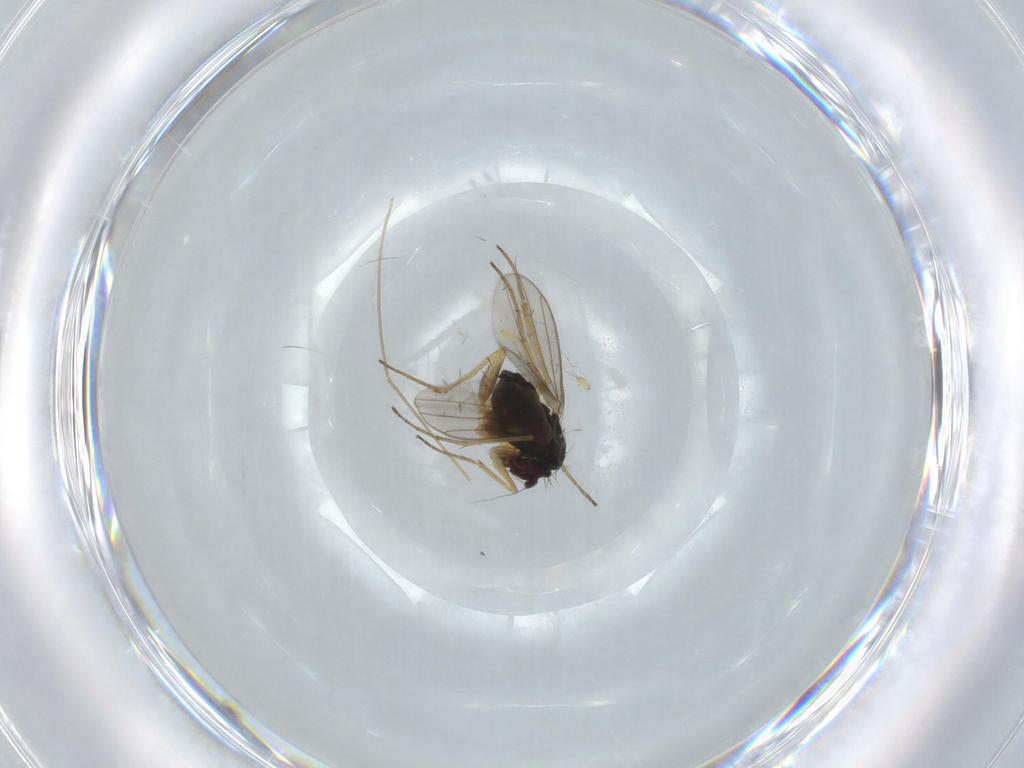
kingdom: Animalia
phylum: Arthropoda
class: Insecta
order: Diptera
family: Dolichopodidae
